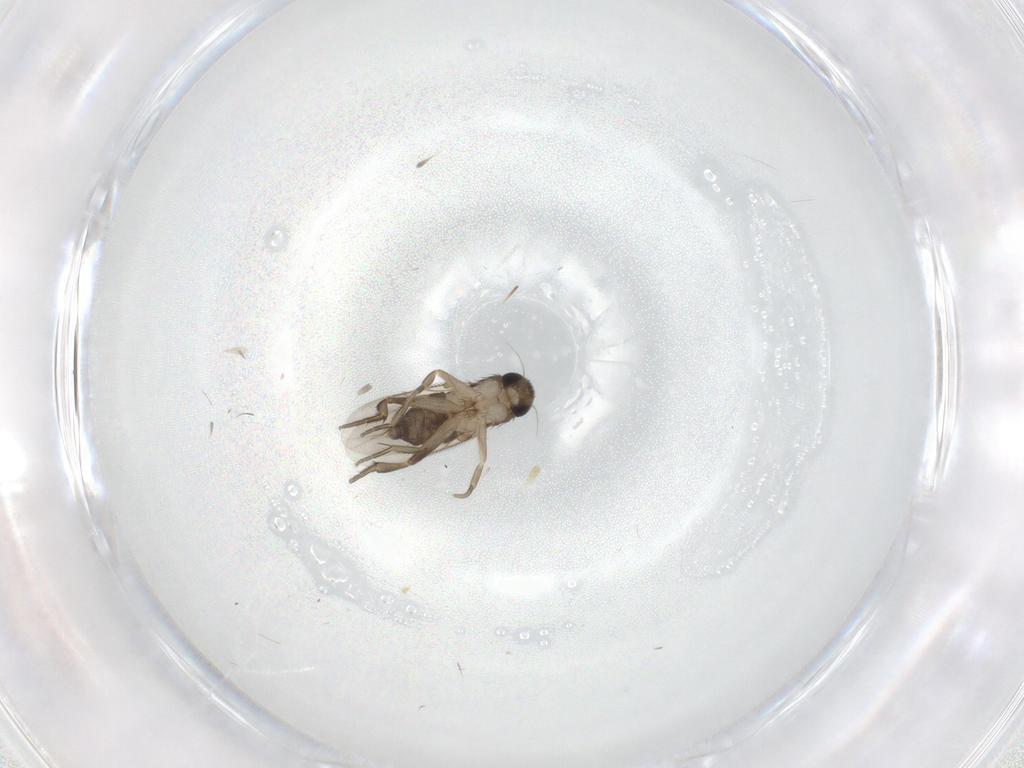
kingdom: Animalia
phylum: Arthropoda
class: Insecta
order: Diptera
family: Phoridae
